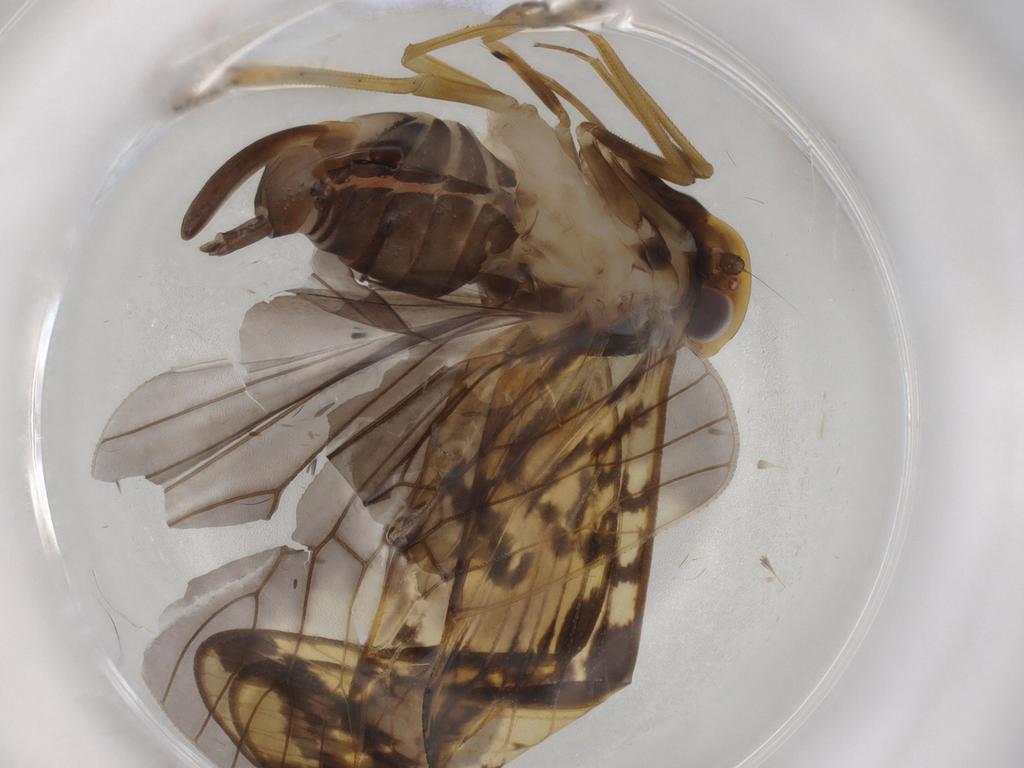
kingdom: Animalia
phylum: Arthropoda
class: Insecta
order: Hemiptera
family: Cixiidae
